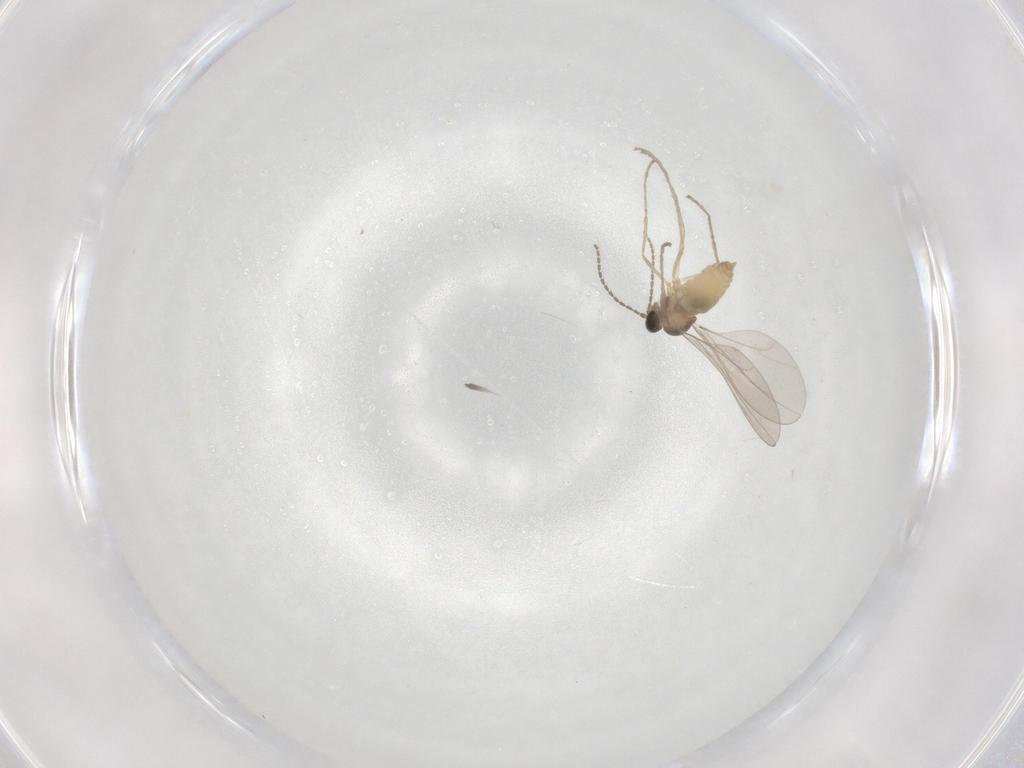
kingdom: Animalia
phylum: Arthropoda
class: Insecta
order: Diptera
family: Cecidomyiidae
